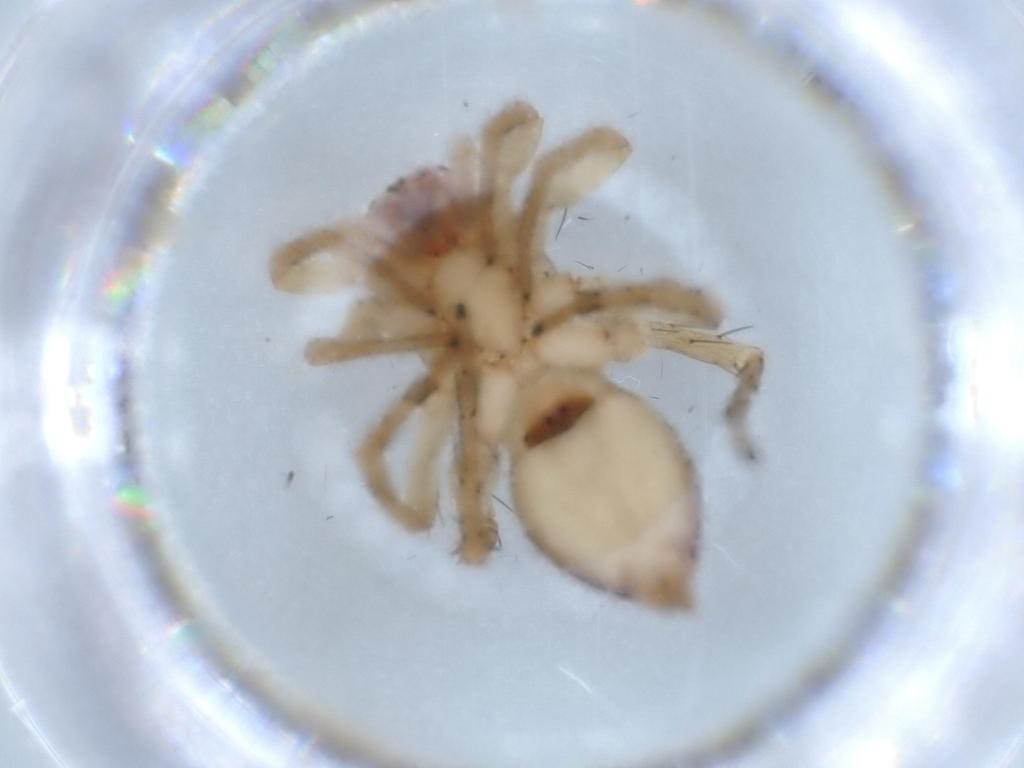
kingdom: Animalia
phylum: Arthropoda
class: Arachnida
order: Araneae
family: Clubionidae
